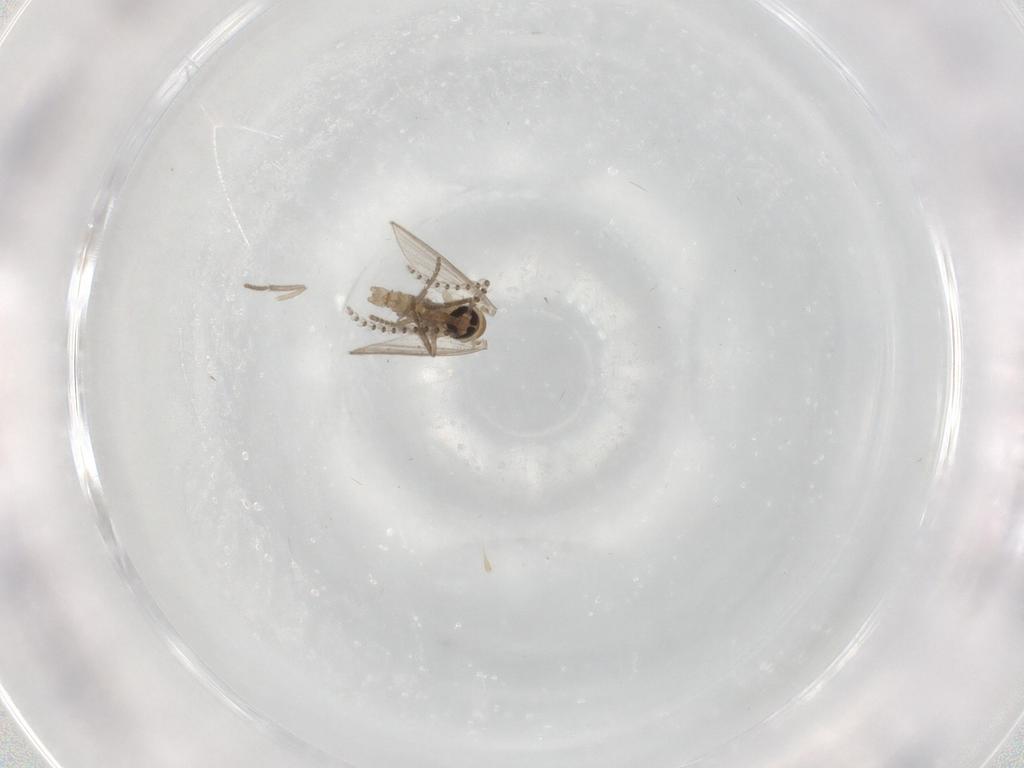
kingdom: Animalia
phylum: Arthropoda
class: Insecta
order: Diptera
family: Psychodidae
